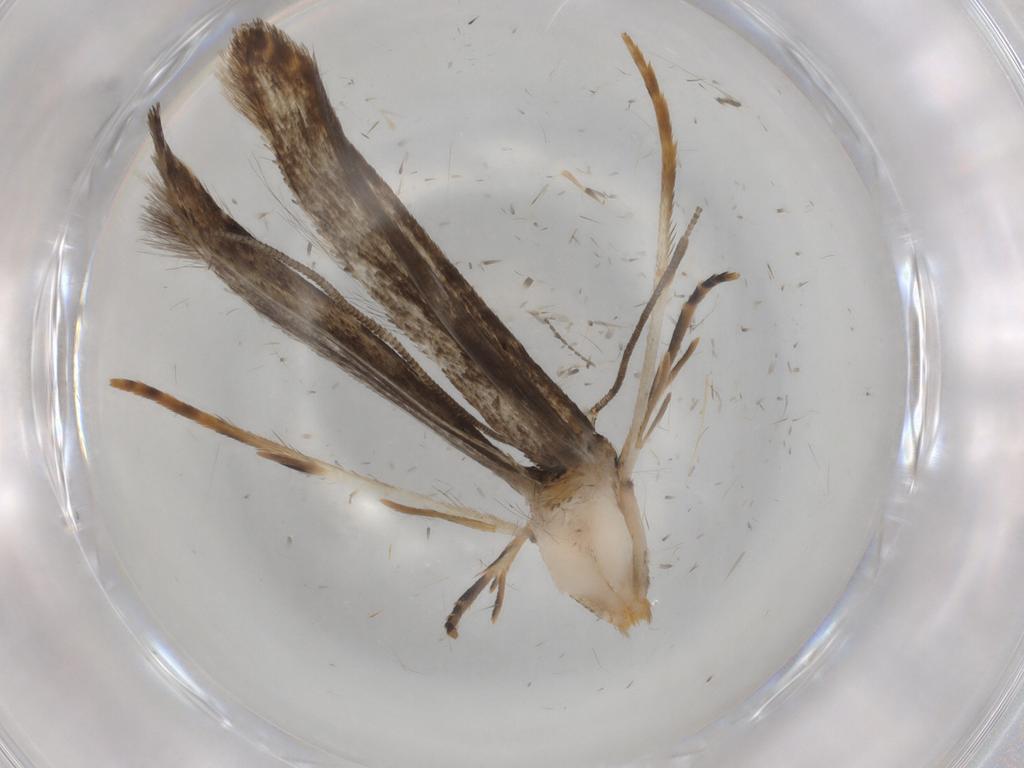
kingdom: Animalia
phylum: Arthropoda
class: Insecta
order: Lepidoptera
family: Tineidae
